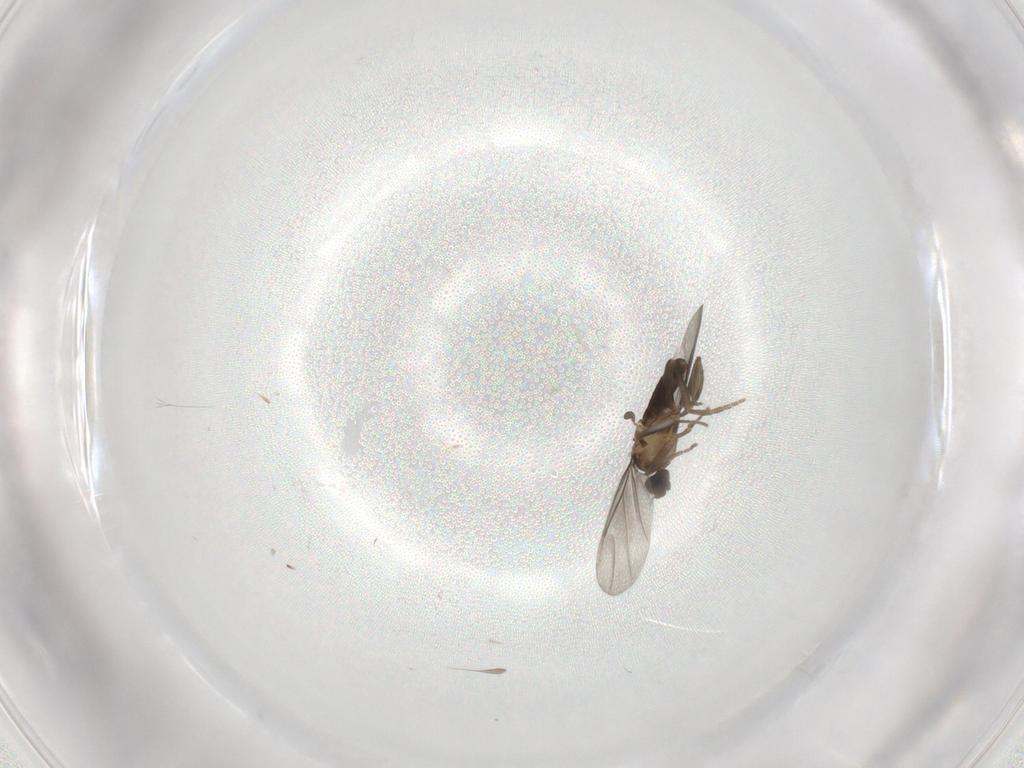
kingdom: Animalia
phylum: Arthropoda
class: Insecta
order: Diptera
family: Phoridae
